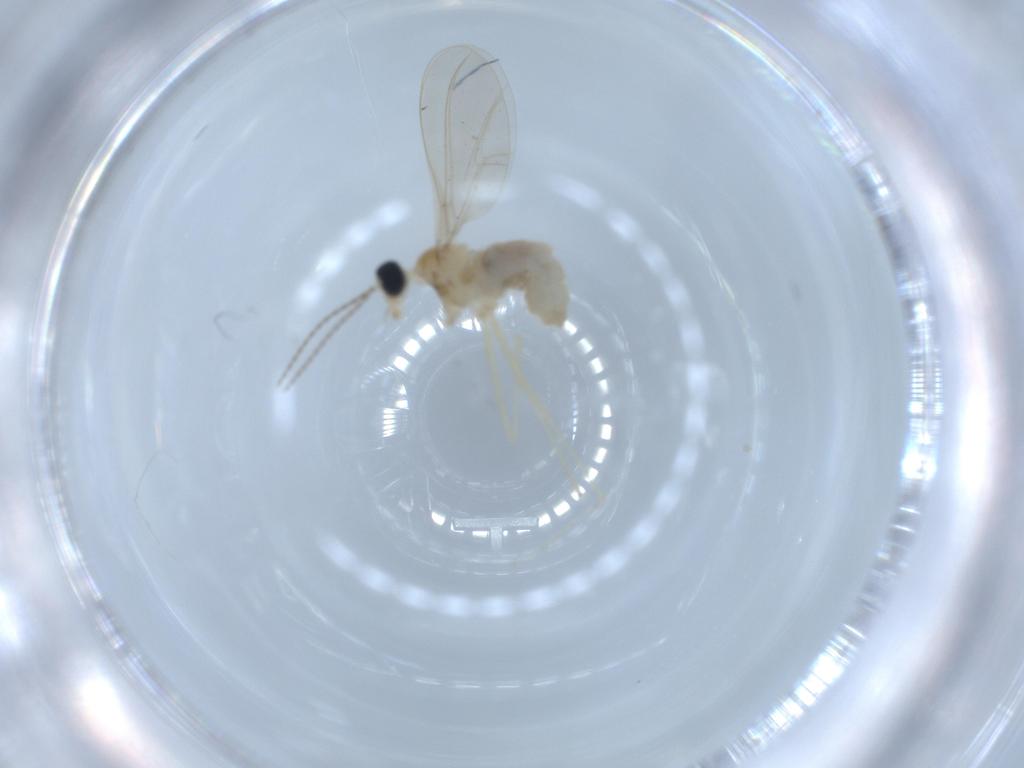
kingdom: Animalia
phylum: Arthropoda
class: Insecta
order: Diptera
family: Cecidomyiidae
